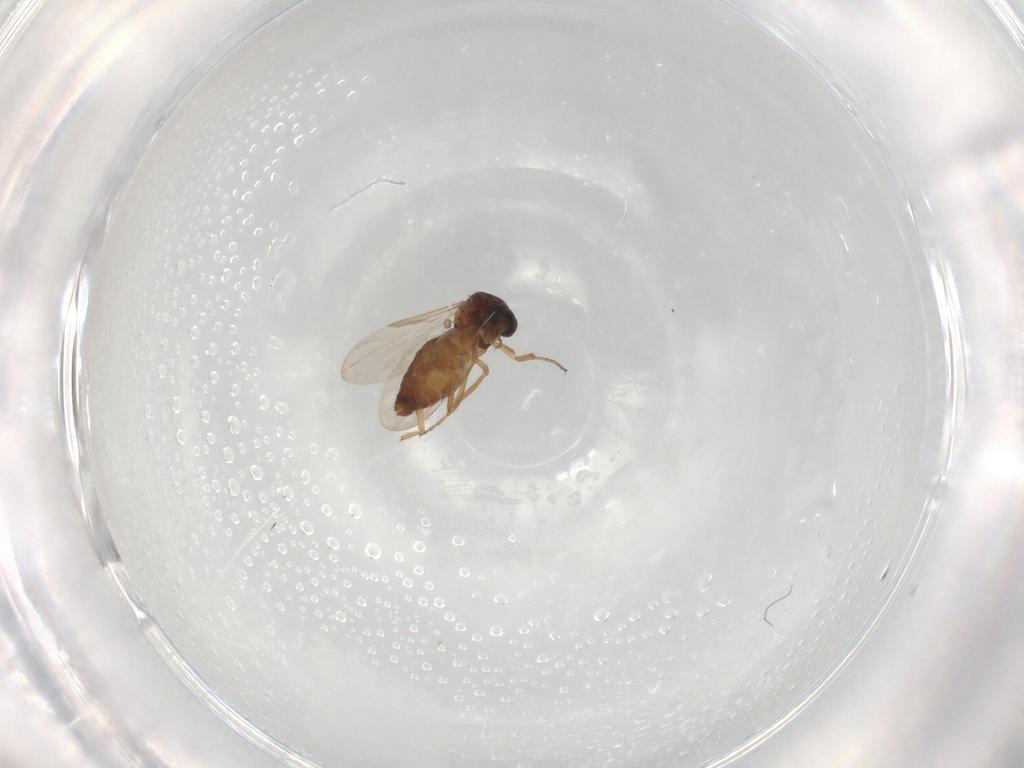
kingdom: Animalia
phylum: Arthropoda
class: Insecta
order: Diptera
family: Ceratopogonidae
